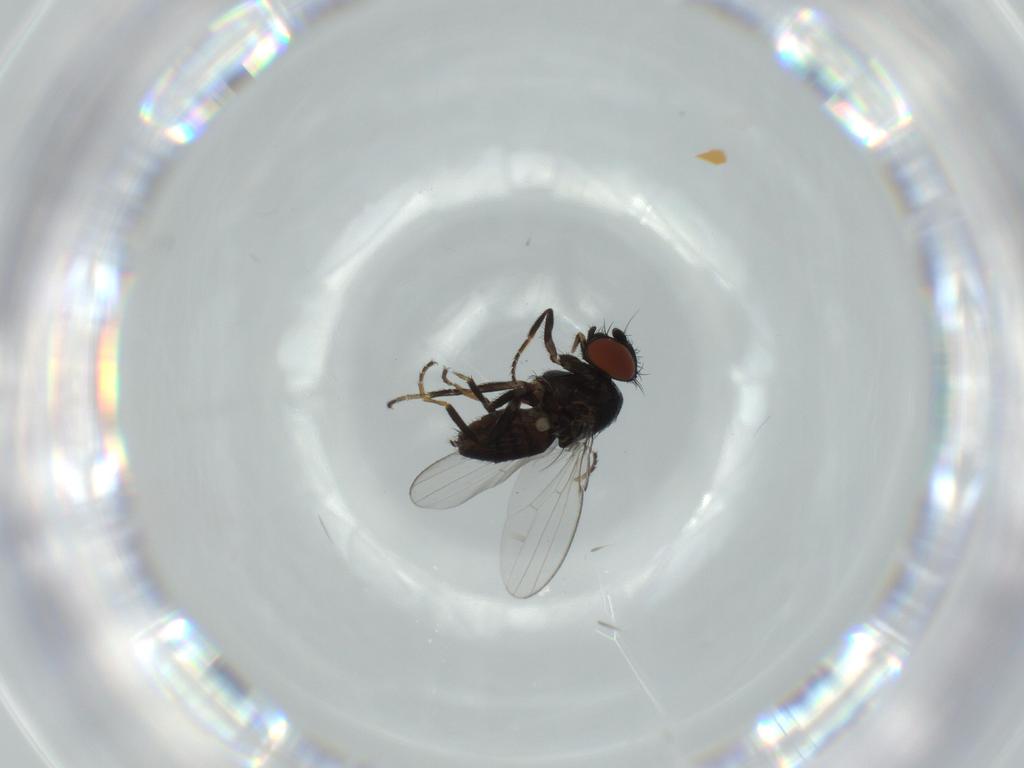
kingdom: Animalia
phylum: Arthropoda
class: Insecta
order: Diptera
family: Milichiidae
